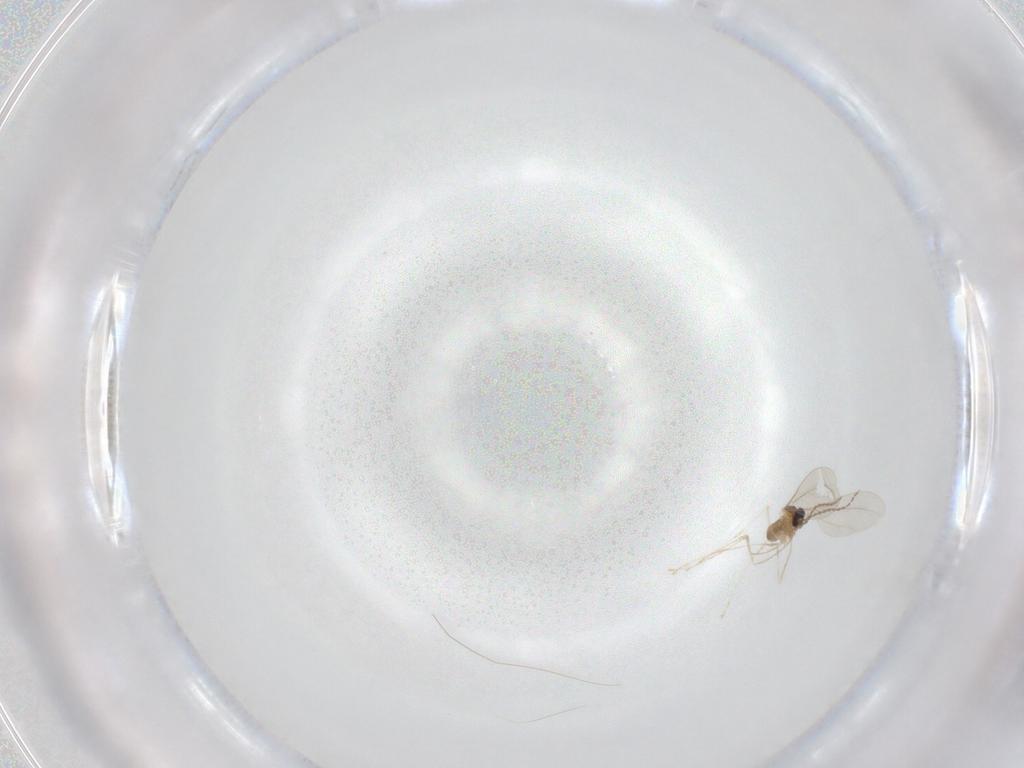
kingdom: Animalia
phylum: Arthropoda
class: Insecta
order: Diptera
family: Cecidomyiidae
